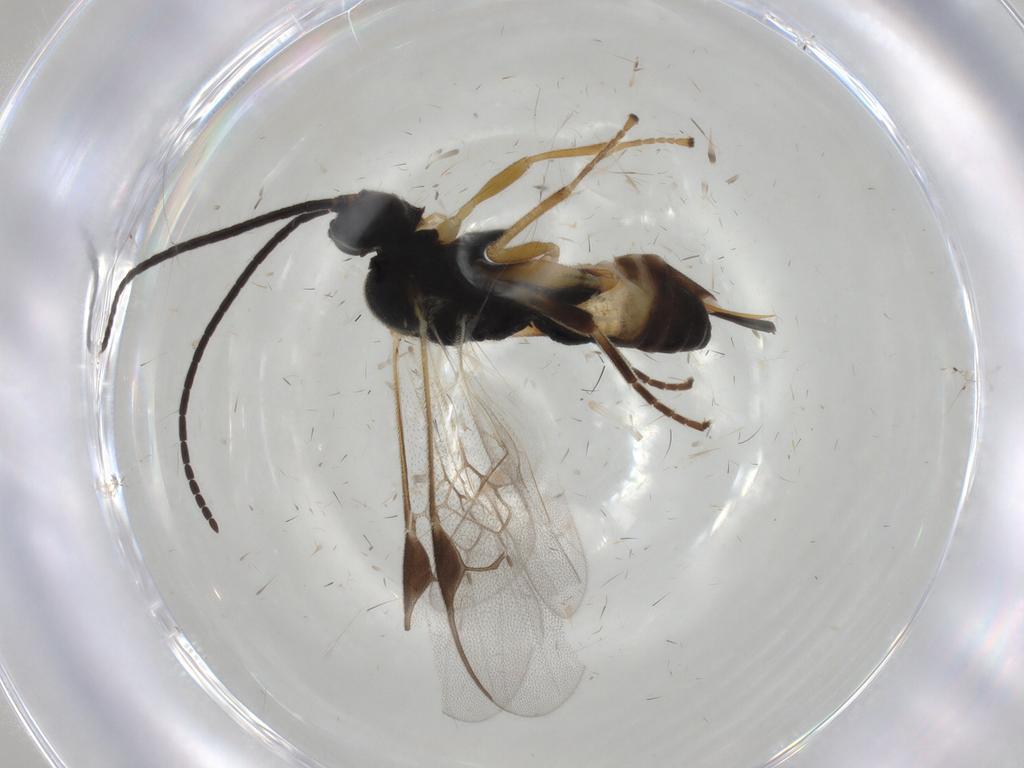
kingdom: Animalia
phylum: Arthropoda
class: Insecta
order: Hymenoptera
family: Braconidae
